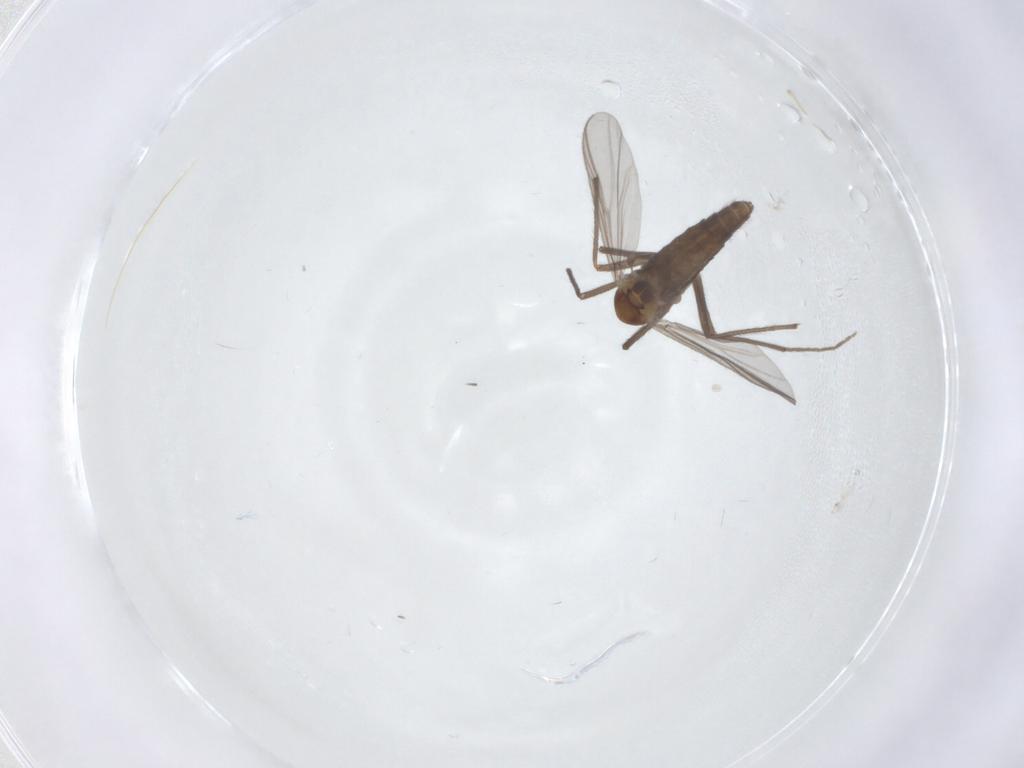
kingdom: Animalia
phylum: Arthropoda
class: Insecta
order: Diptera
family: Chironomidae
